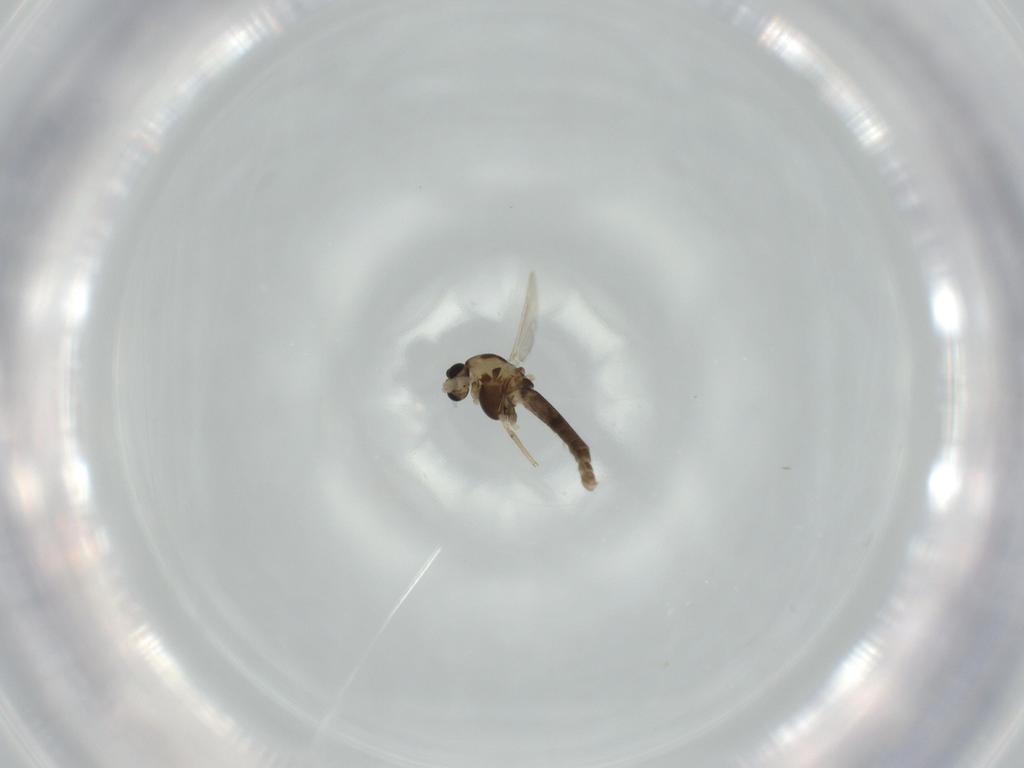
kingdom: Animalia
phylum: Arthropoda
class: Insecta
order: Diptera
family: Chironomidae
